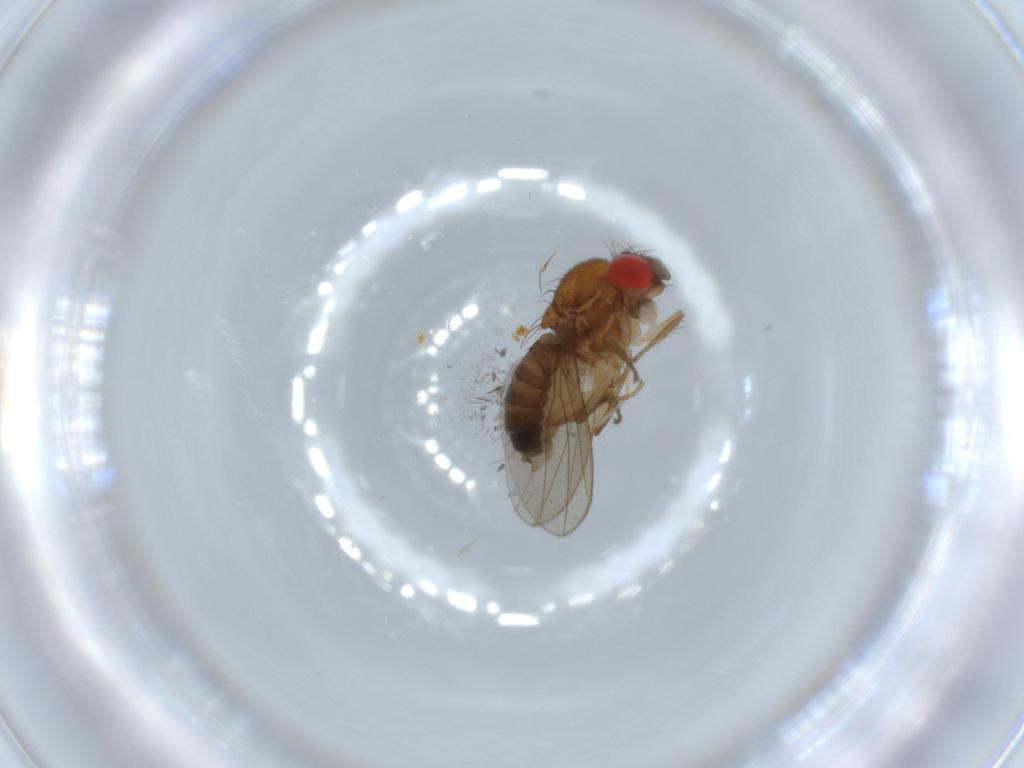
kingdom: Animalia
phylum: Arthropoda
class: Insecta
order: Diptera
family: Drosophilidae
